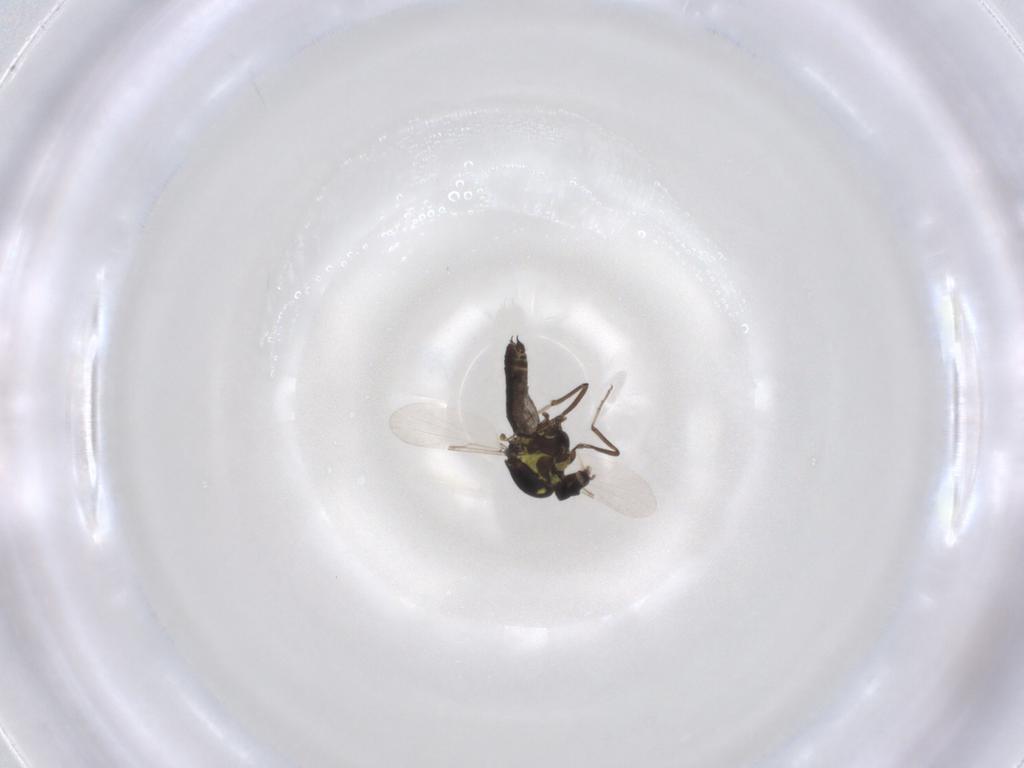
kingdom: Animalia
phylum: Arthropoda
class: Insecta
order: Diptera
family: Ceratopogonidae
